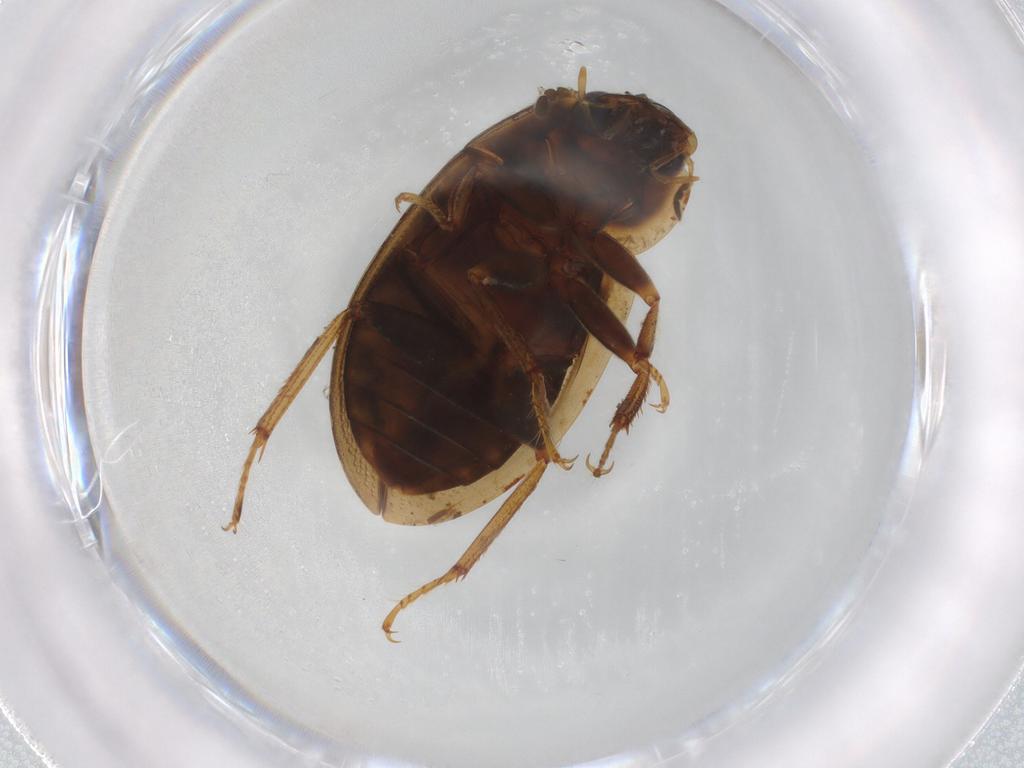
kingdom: Animalia
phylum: Arthropoda
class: Insecta
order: Coleoptera
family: Hydrophilidae
